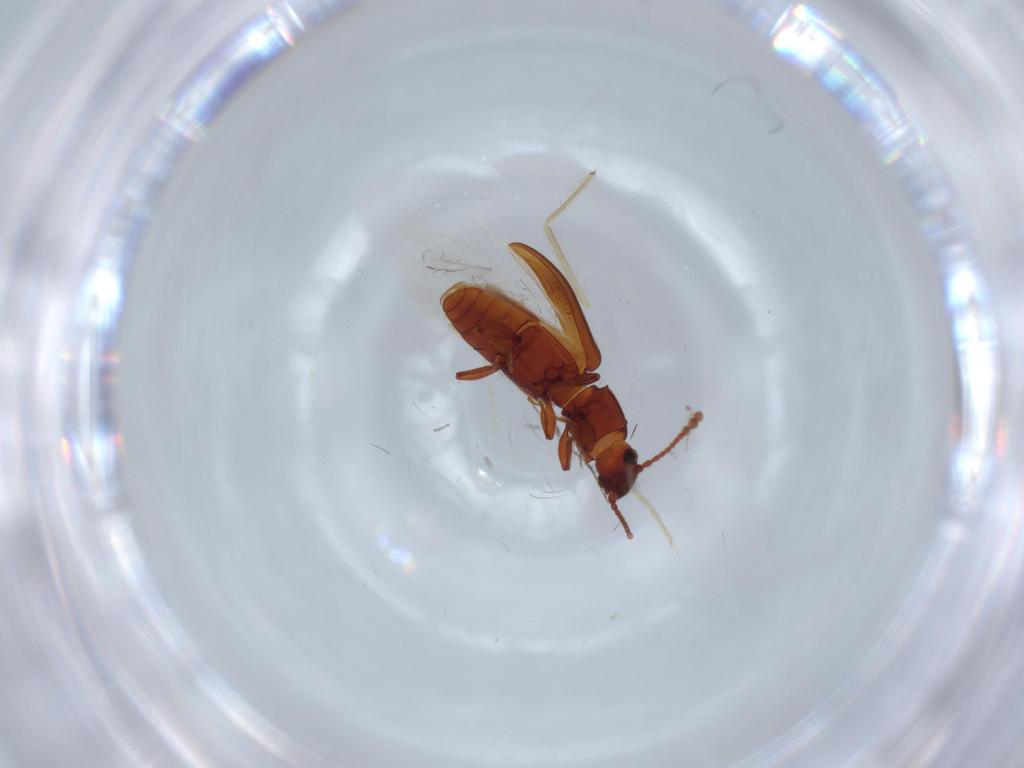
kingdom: Animalia
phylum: Arthropoda
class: Insecta
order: Coleoptera
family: Silvanidae
